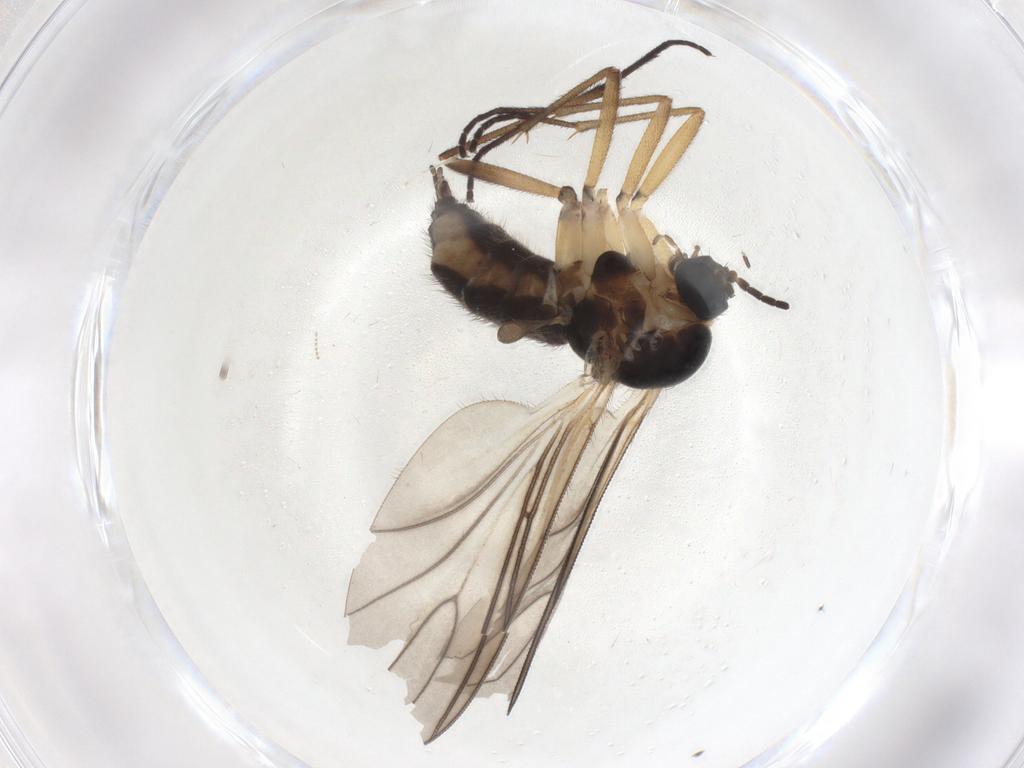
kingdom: Animalia
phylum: Arthropoda
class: Insecta
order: Diptera
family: Sciaridae
